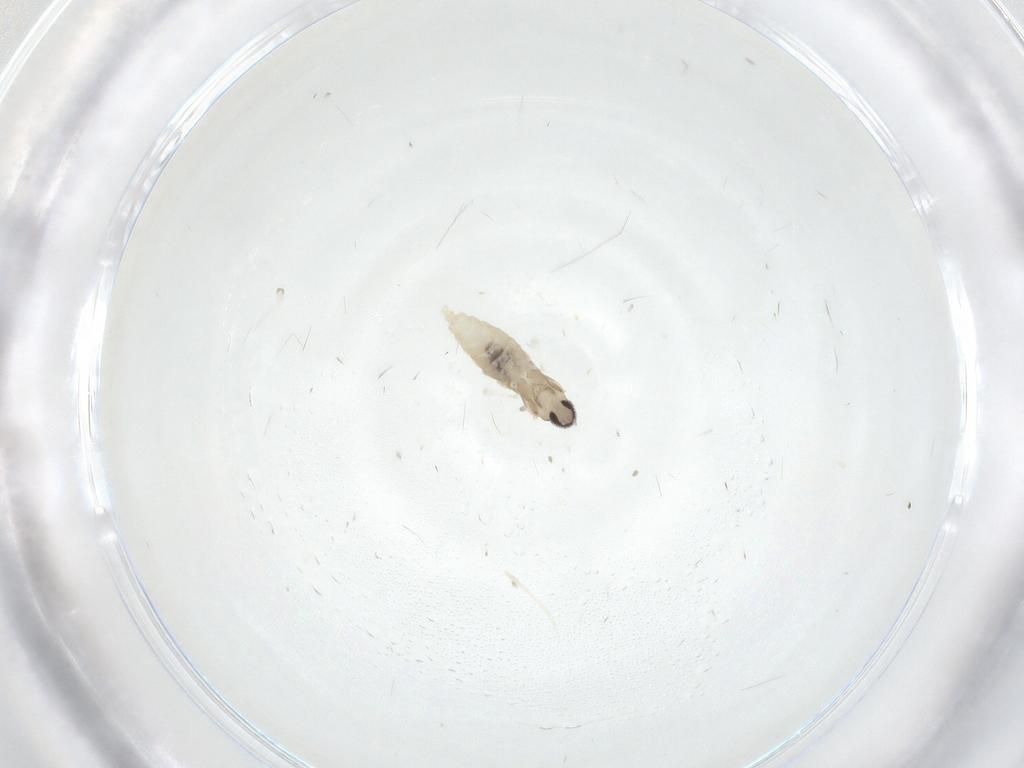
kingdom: Animalia
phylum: Arthropoda
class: Insecta
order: Diptera
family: Cecidomyiidae
